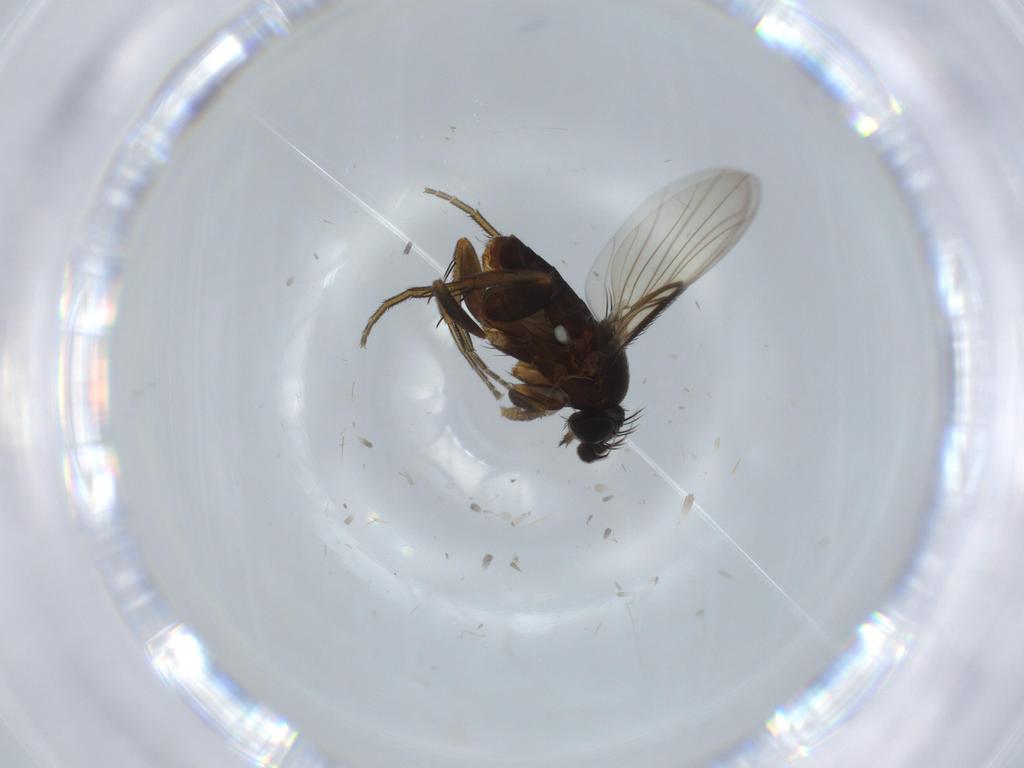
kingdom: Animalia
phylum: Arthropoda
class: Insecta
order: Diptera
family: Phoridae
